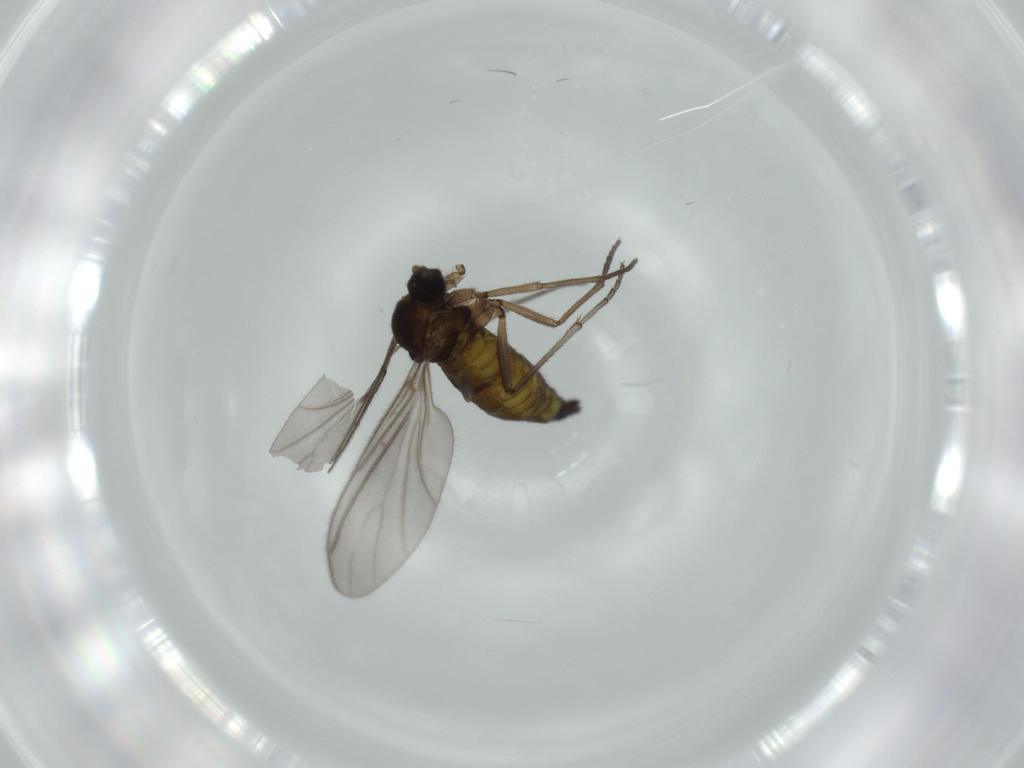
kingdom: Animalia
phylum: Arthropoda
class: Insecta
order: Diptera
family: Sciaridae
